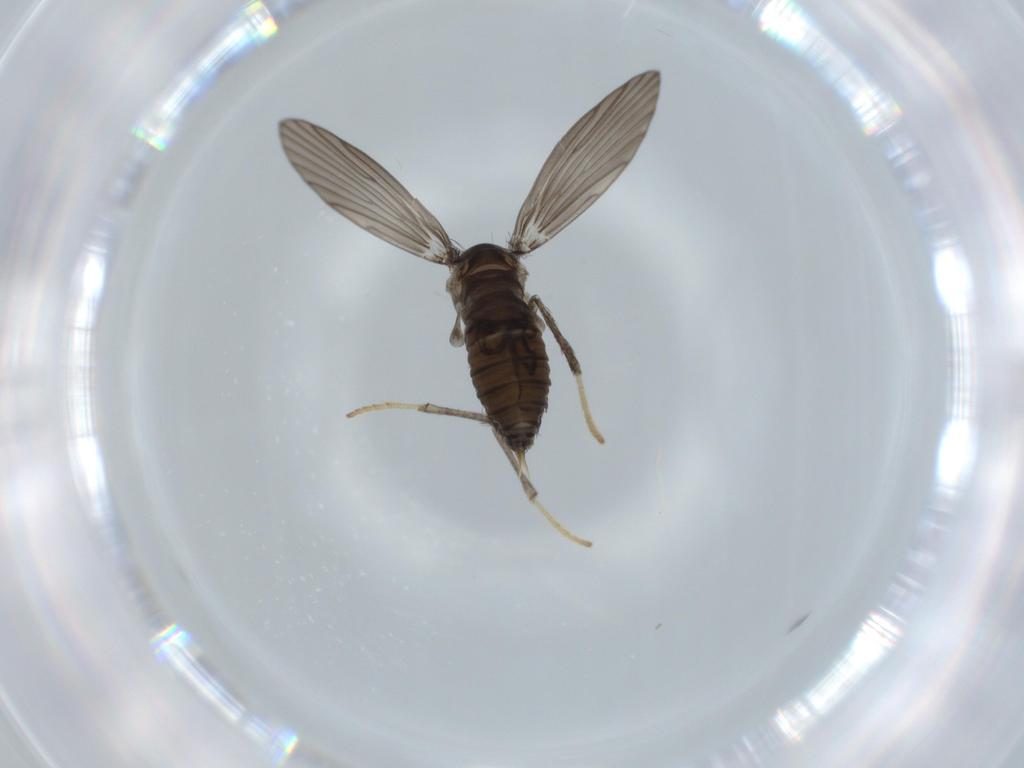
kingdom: Animalia
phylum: Arthropoda
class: Insecta
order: Diptera
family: Psychodidae
